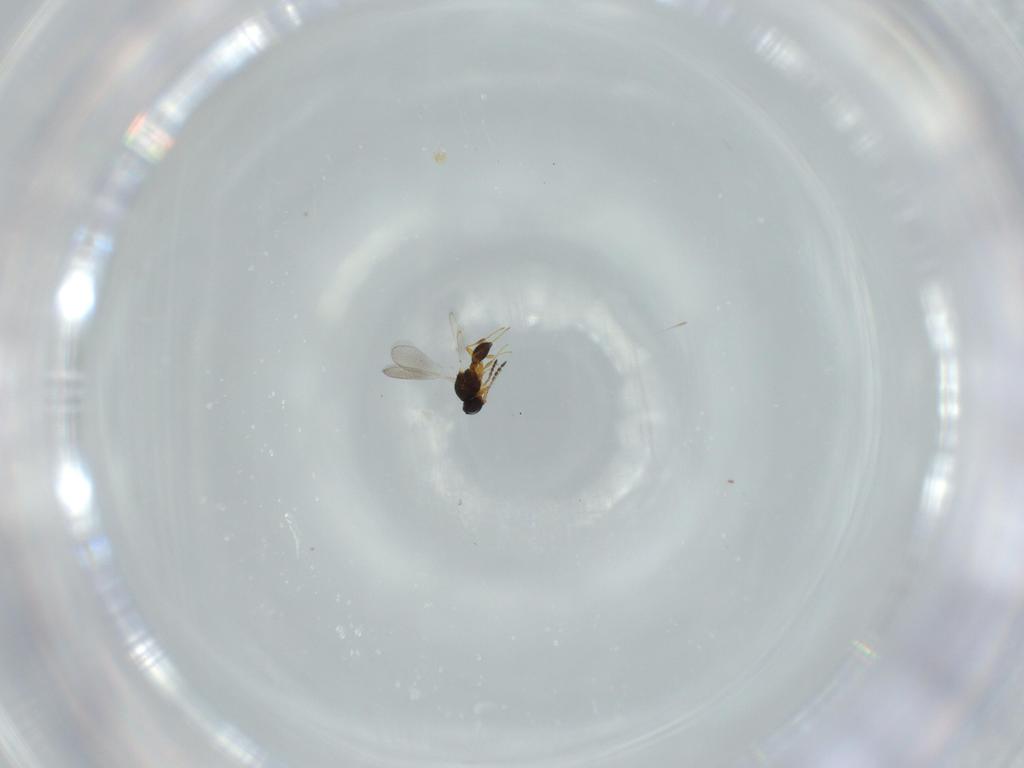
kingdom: Animalia
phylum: Arthropoda
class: Insecta
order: Hymenoptera
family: Platygastridae
